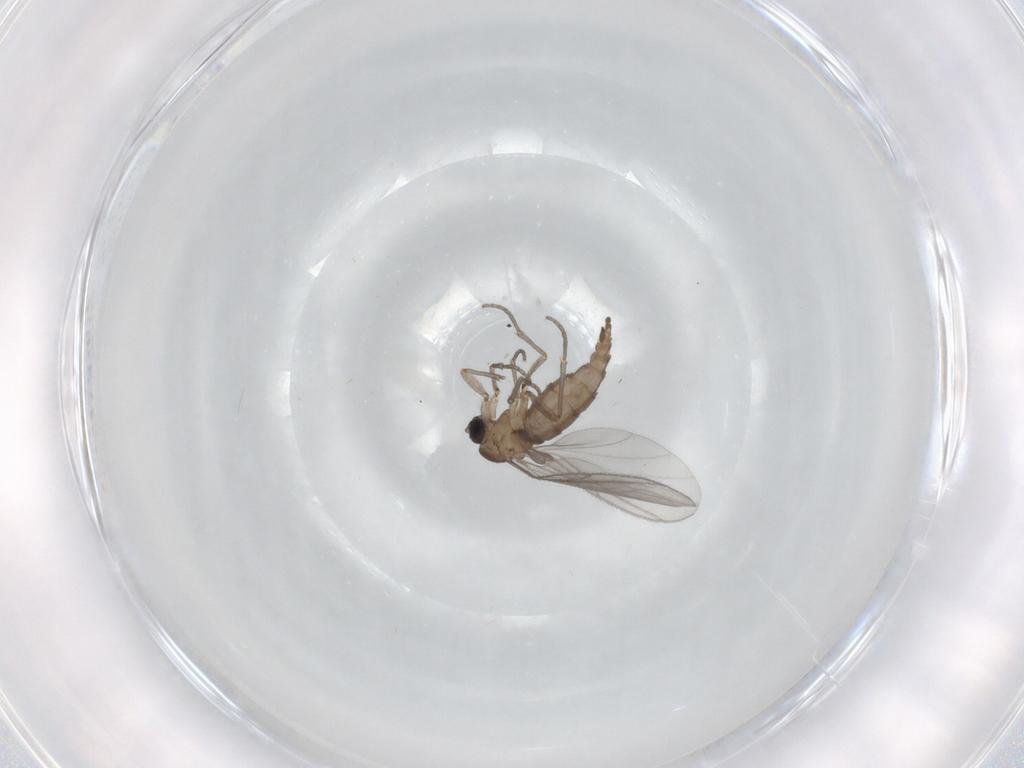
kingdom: Animalia
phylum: Arthropoda
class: Insecta
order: Diptera
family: Sciaridae
